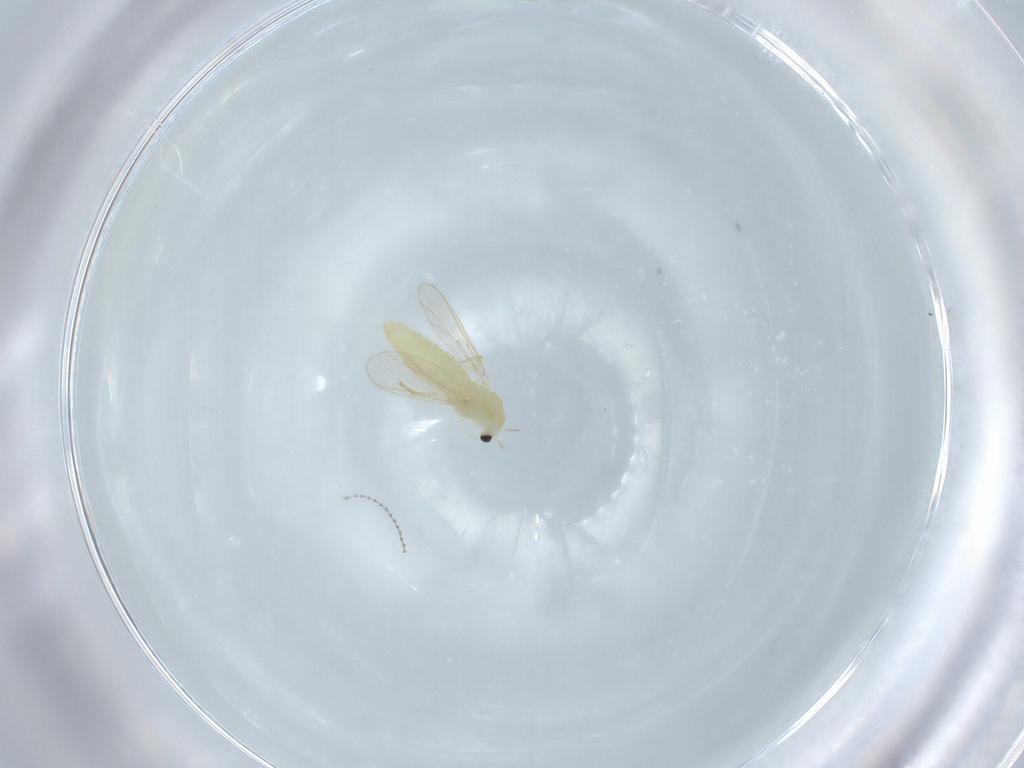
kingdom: Animalia
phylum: Arthropoda
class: Insecta
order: Diptera
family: Chironomidae
